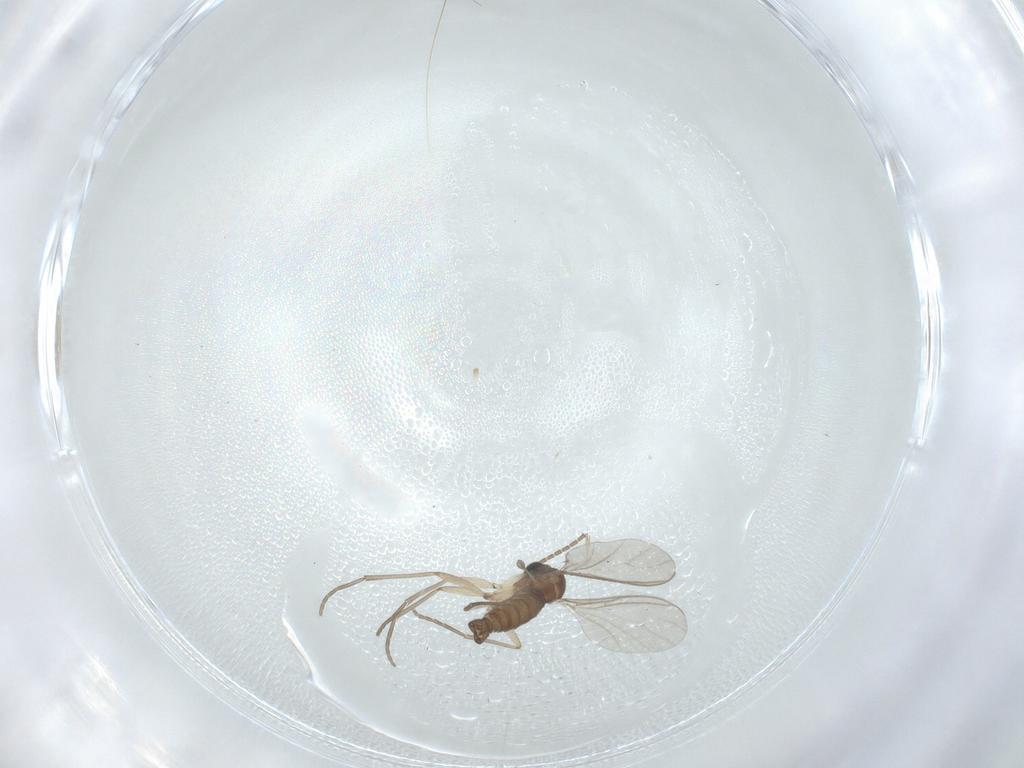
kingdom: Animalia
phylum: Arthropoda
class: Insecta
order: Diptera
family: Sciaridae
